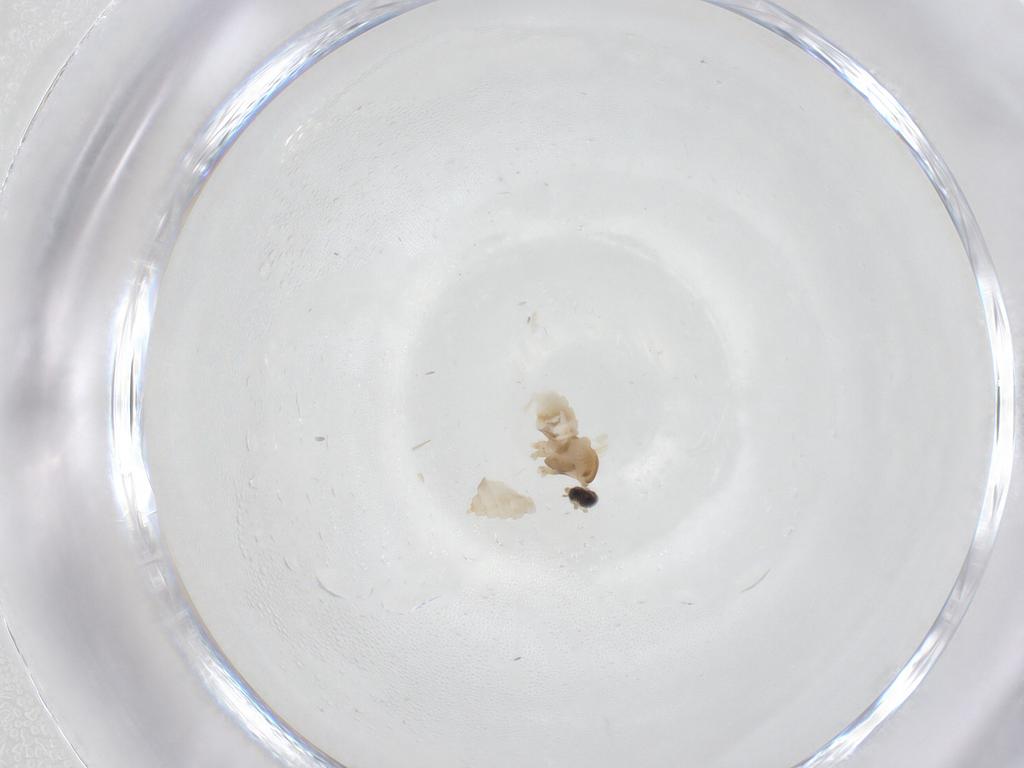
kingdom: Animalia
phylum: Arthropoda
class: Insecta
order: Diptera
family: Cecidomyiidae
